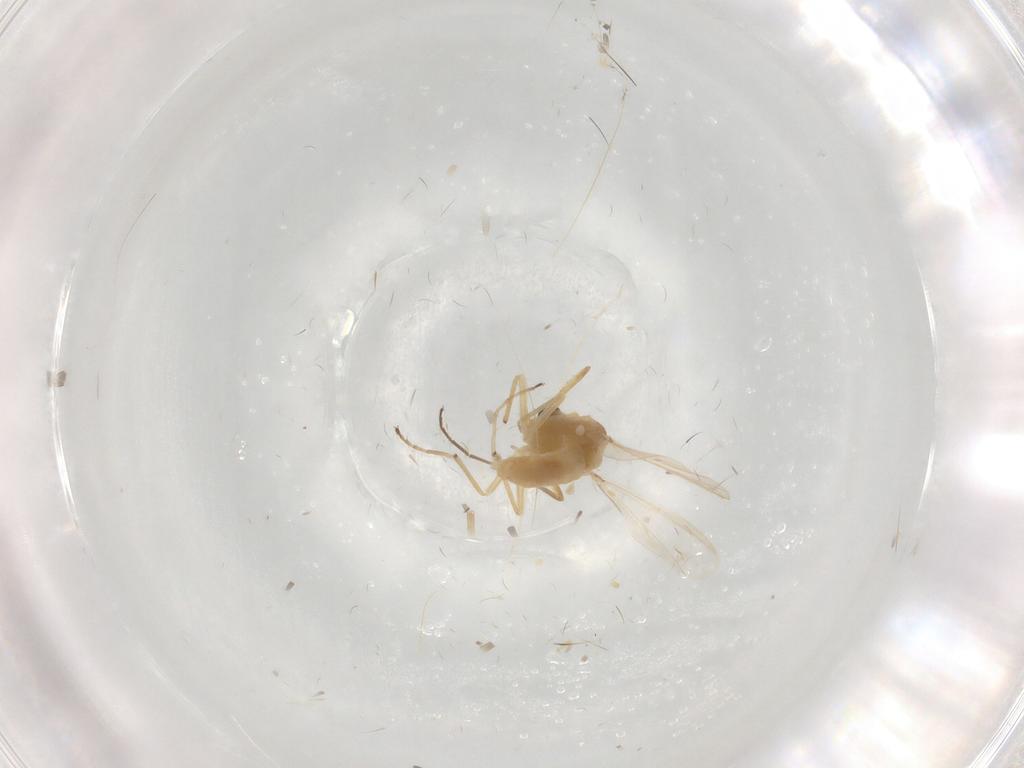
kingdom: Animalia
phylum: Arthropoda
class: Insecta
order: Diptera
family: Chironomidae
